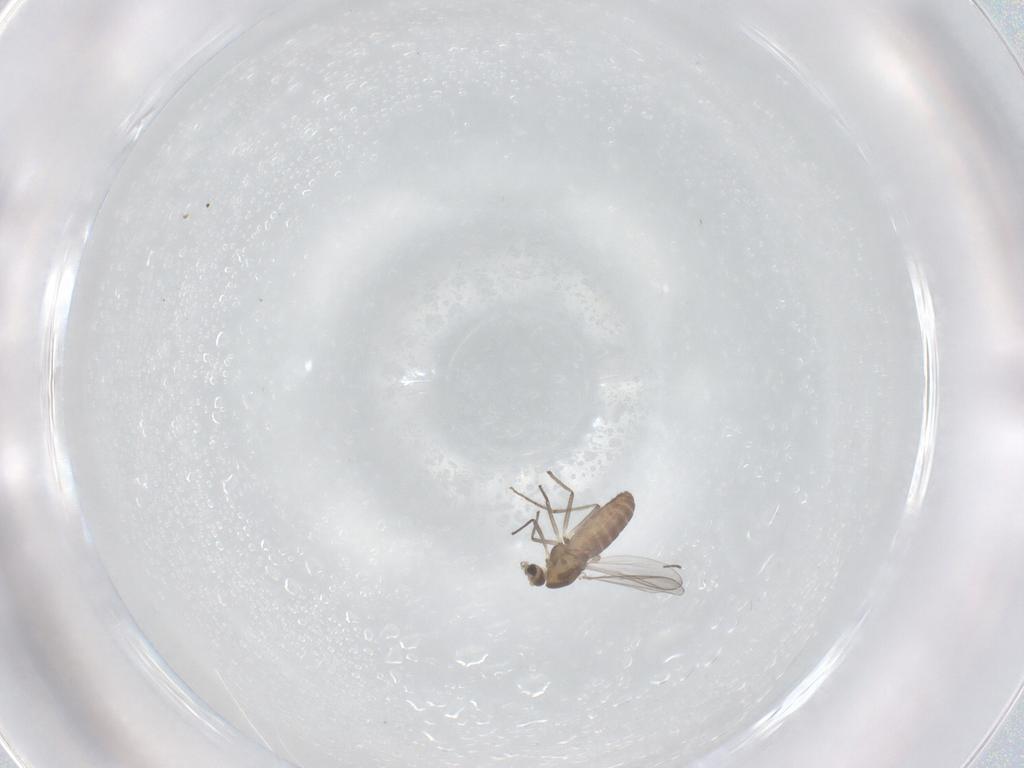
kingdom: Animalia
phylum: Arthropoda
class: Insecta
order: Diptera
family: Chironomidae
